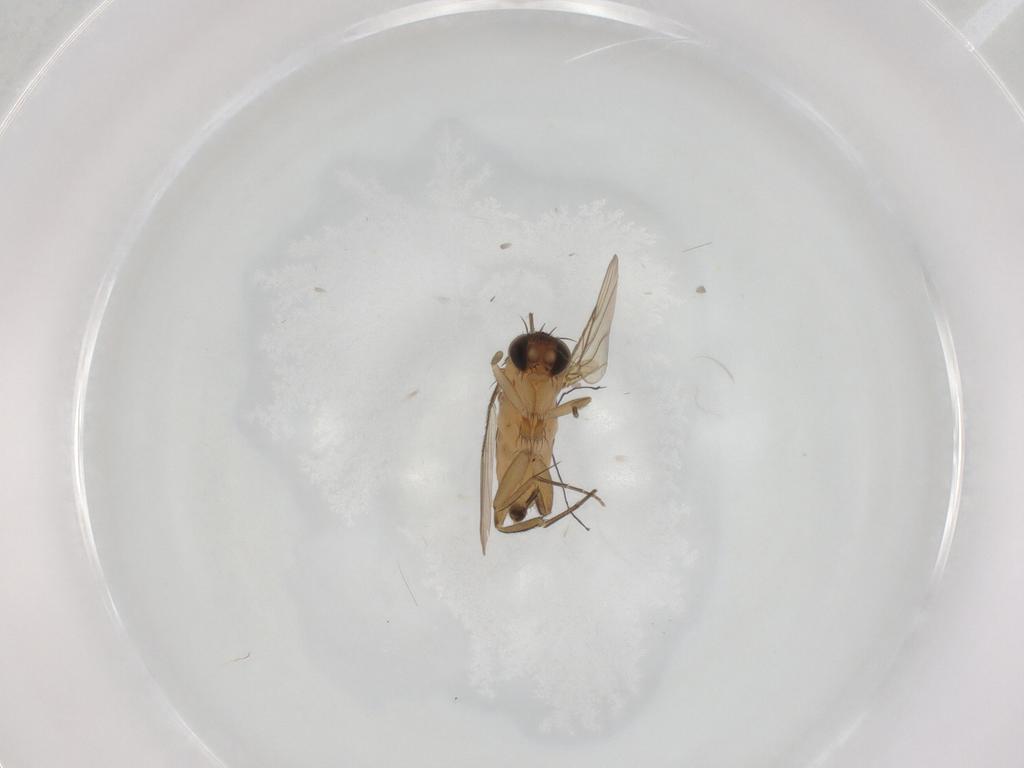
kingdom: Animalia
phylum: Arthropoda
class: Insecta
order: Diptera
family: Phoridae
